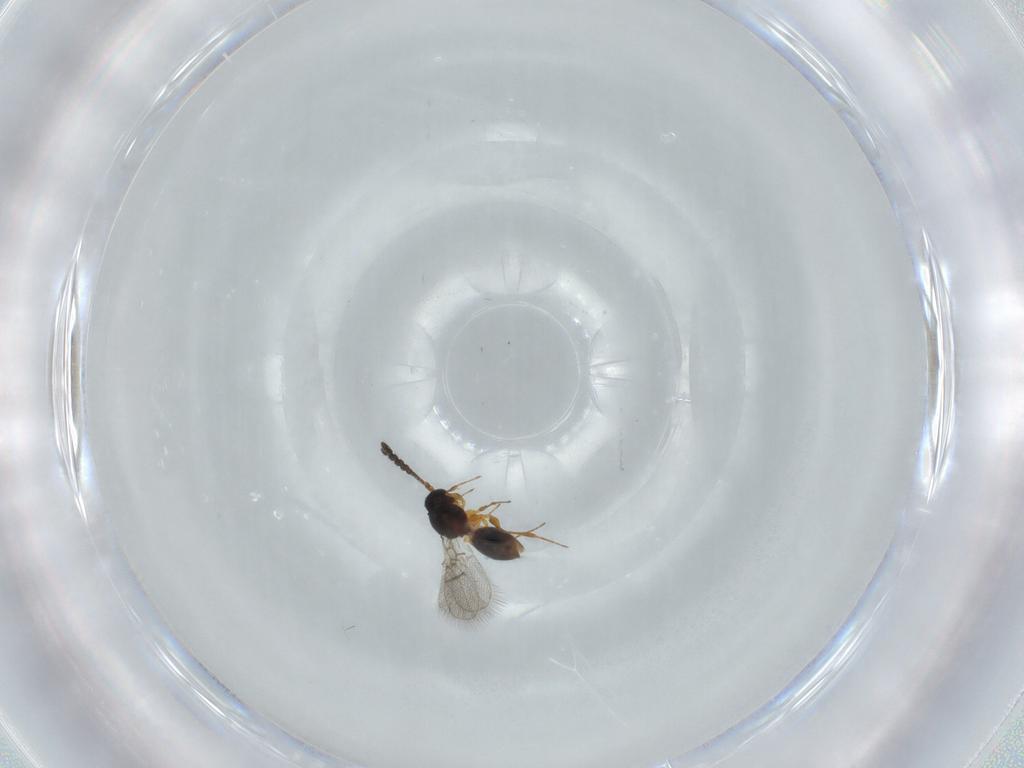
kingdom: Animalia
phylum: Arthropoda
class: Insecta
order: Hymenoptera
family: Figitidae
